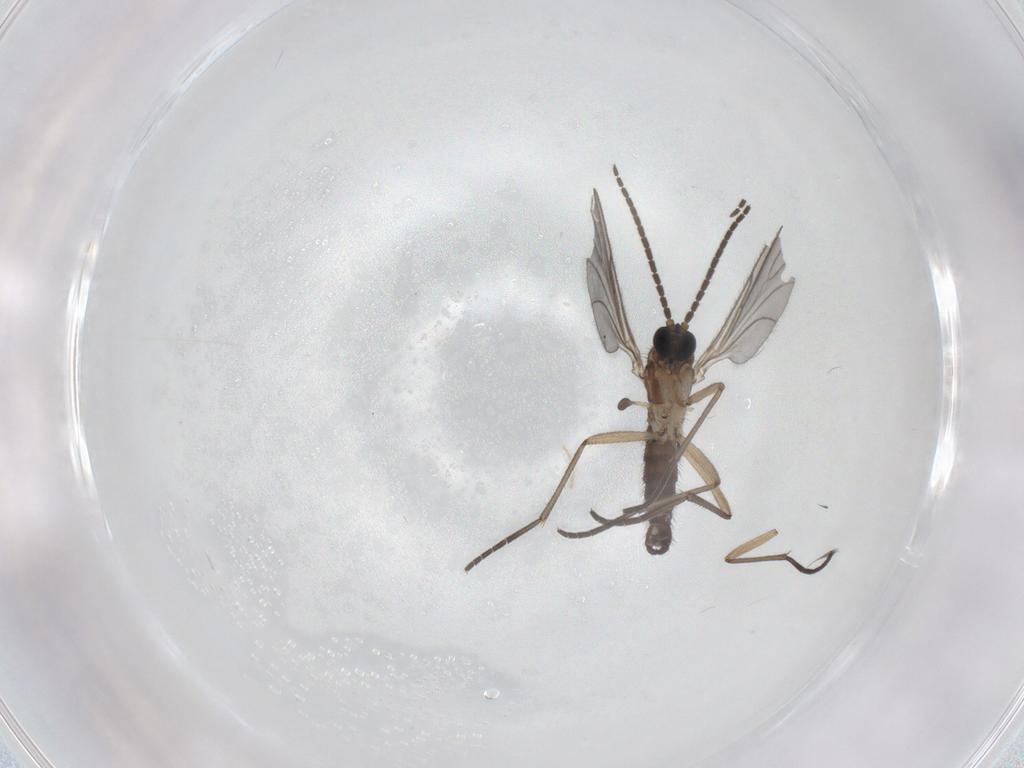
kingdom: Animalia
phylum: Arthropoda
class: Insecta
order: Diptera
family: Sciaridae
